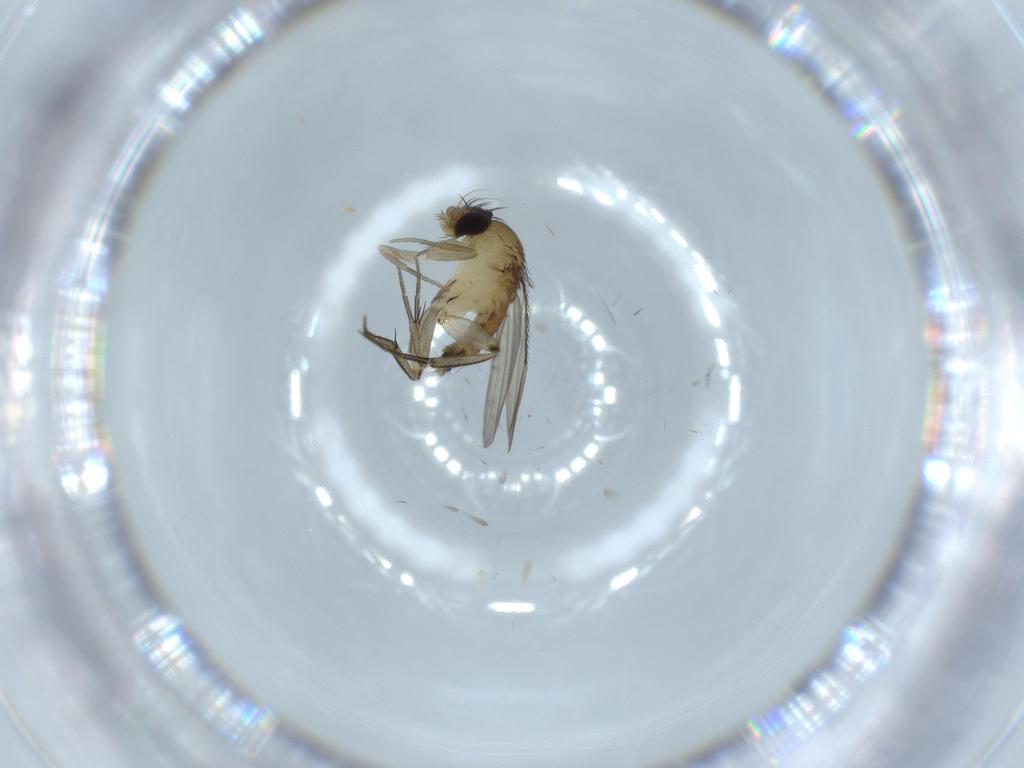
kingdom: Animalia
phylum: Arthropoda
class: Insecta
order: Diptera
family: Phoridae
